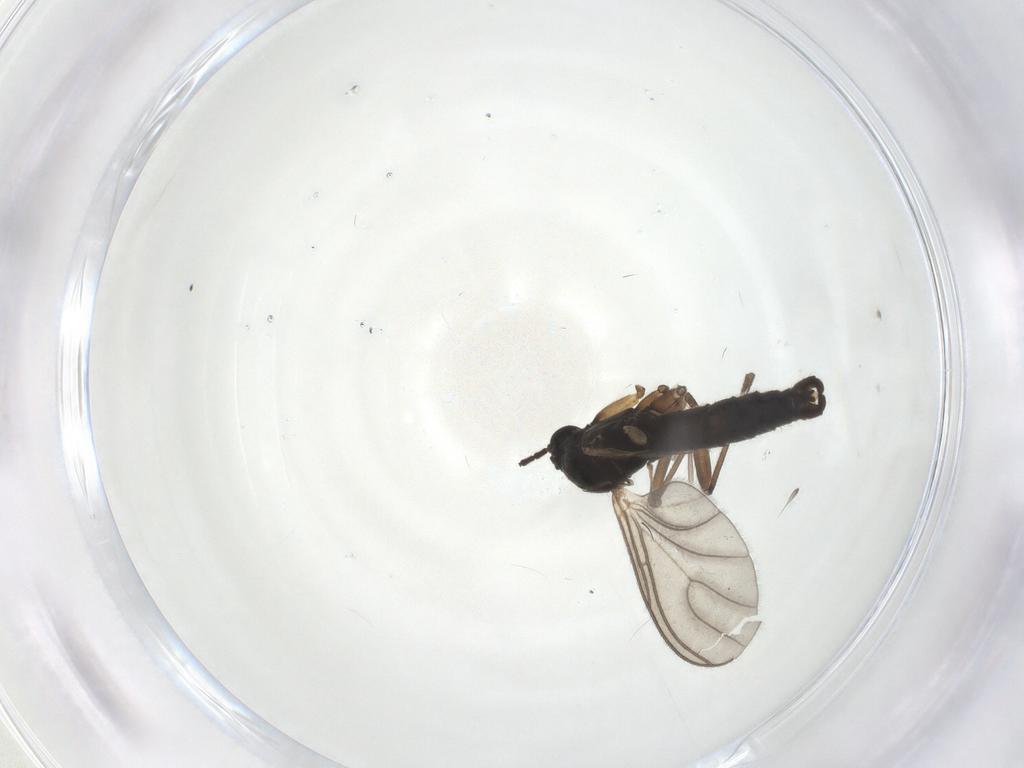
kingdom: Animalia
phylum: Arthropoda
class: Insecta
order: Diptera
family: Sciaridae
